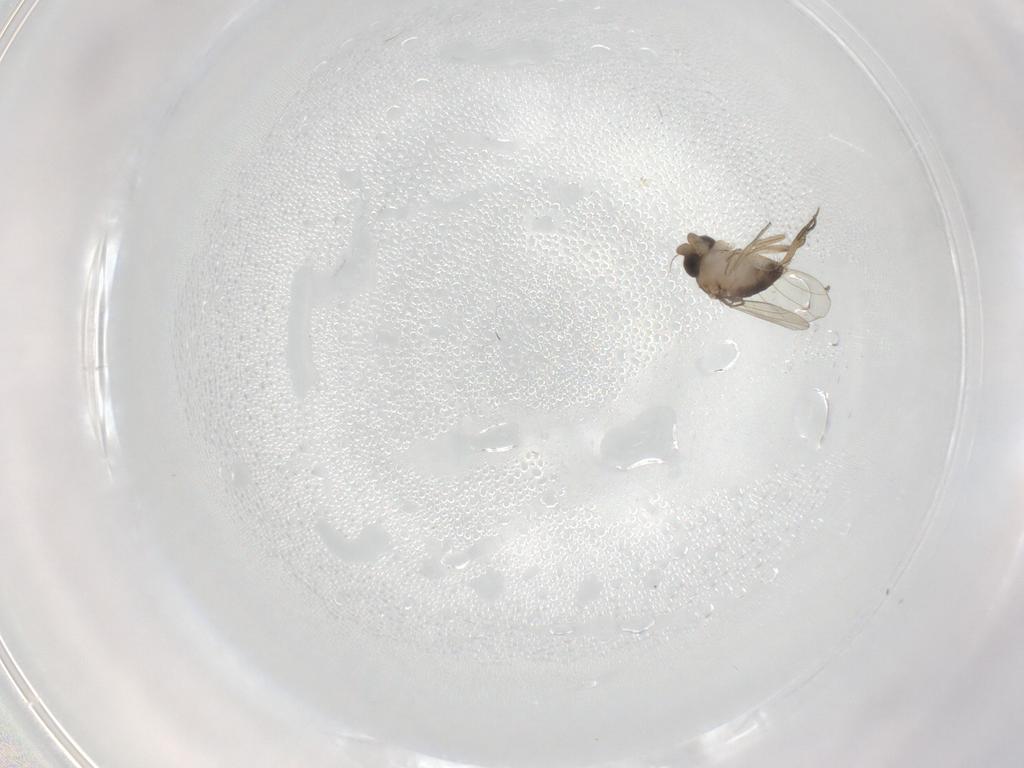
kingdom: Animalia
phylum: Arthropoda
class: Insecta
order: Diptera
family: Phoridae
